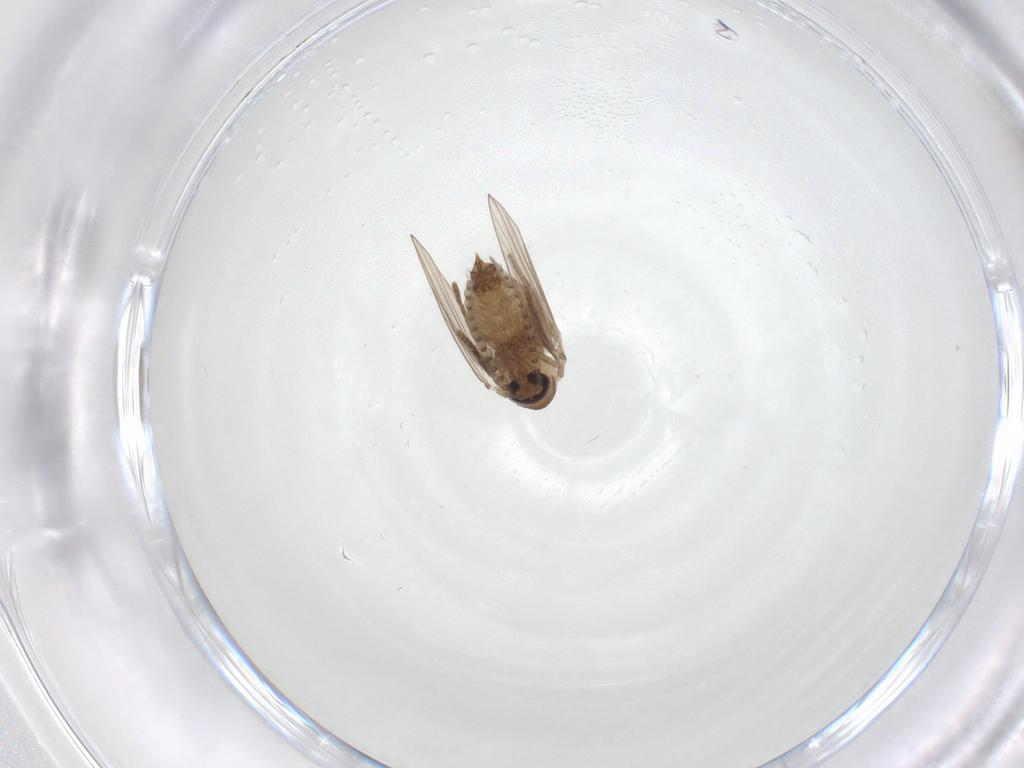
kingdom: Animalia
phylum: Arthropoda
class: Insecta
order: Diptera
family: Psychodidae
